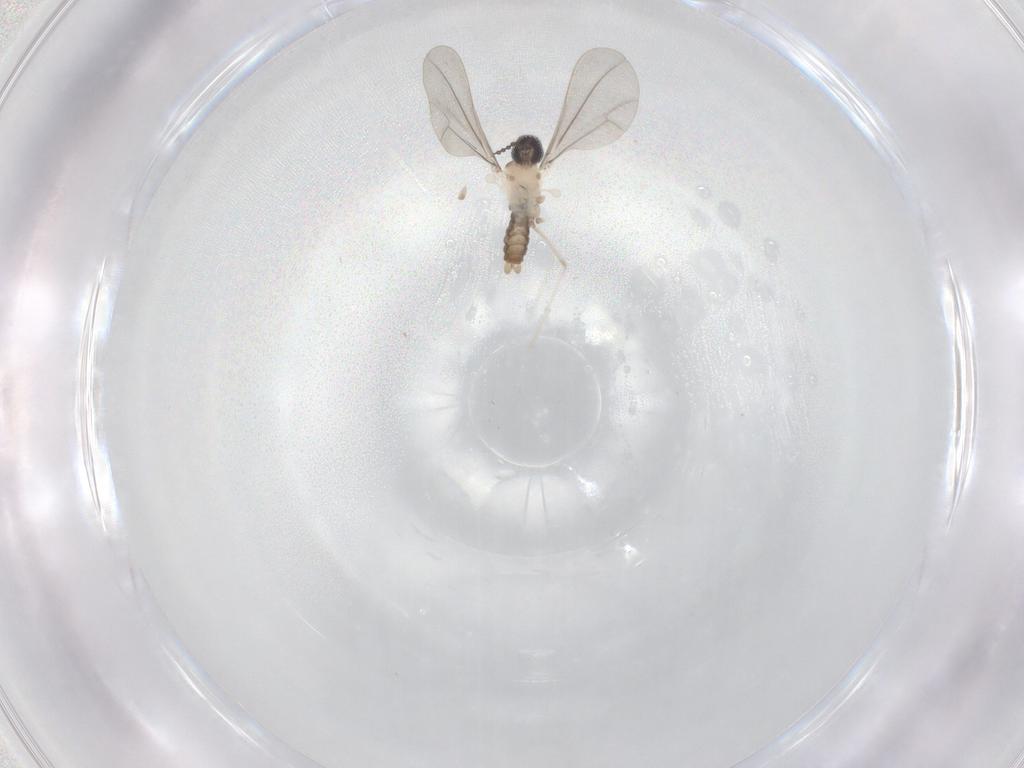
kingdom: Animalia
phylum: Arthropoda
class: Insecta
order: Diptera
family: Cecidomyiidae
